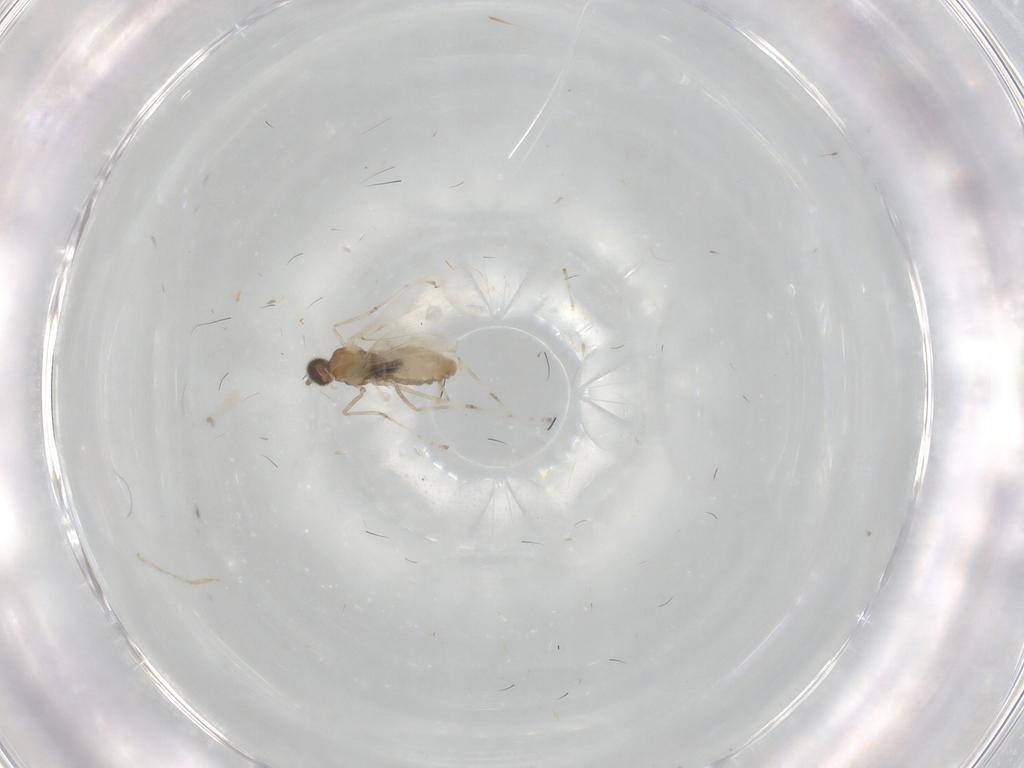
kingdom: Animalia
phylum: Arthropoda
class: Insecta
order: Diptera
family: Cecidomyiidae
